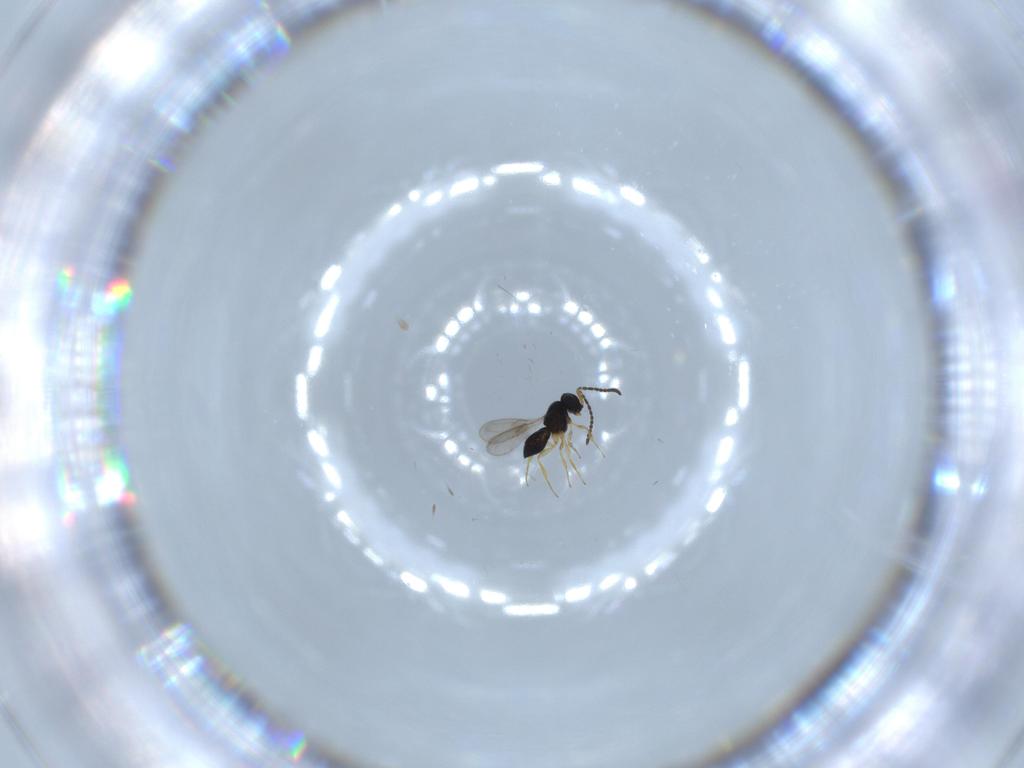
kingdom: Animalia
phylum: Arthropoda
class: Insecta
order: Hymenoptera
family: Scelionidae
